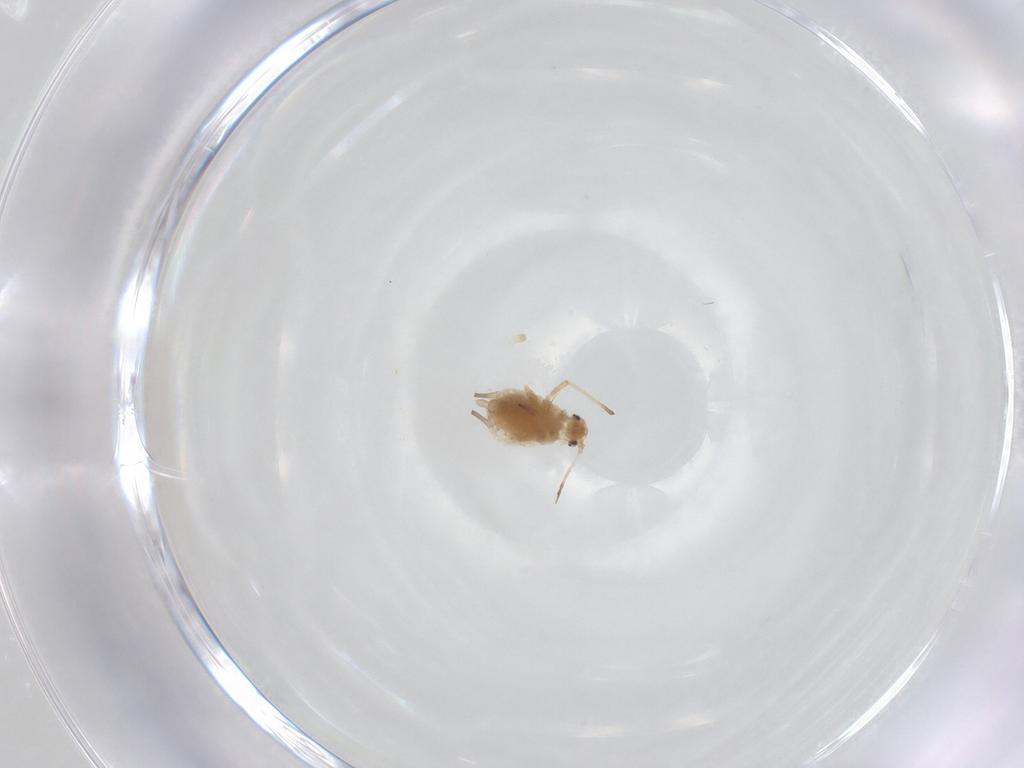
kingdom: Animalia
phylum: Arthropoda
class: Insecta
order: Hemiptera
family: Aphididae
